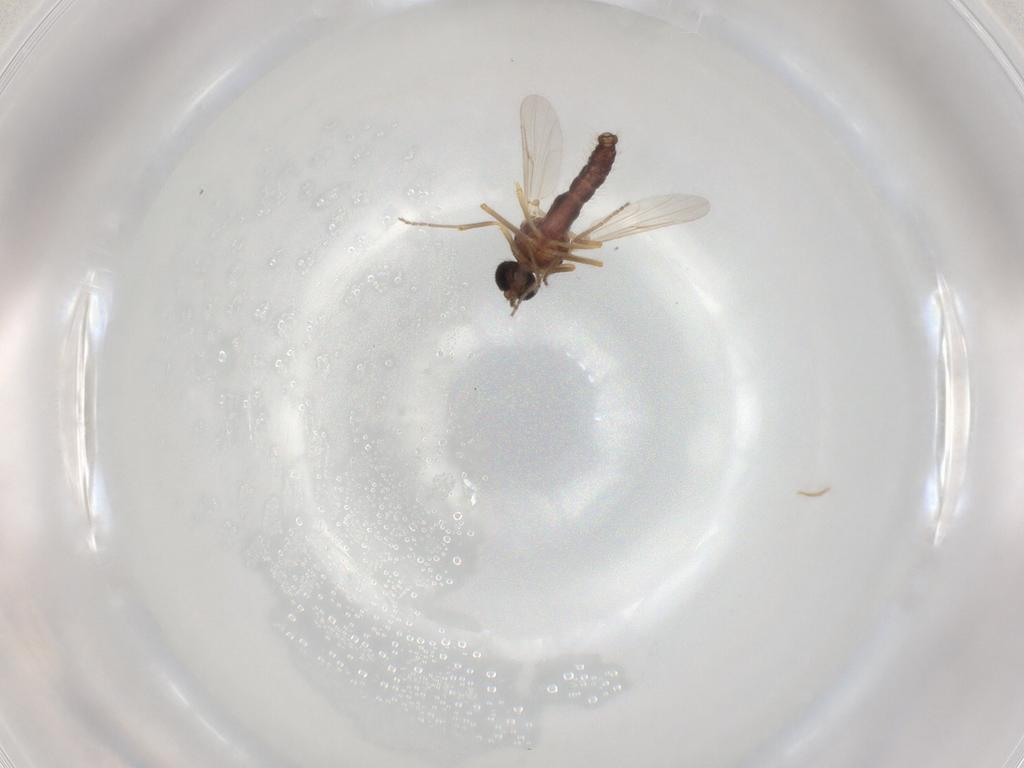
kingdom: Animalia
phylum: Arthropoda
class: Insecta
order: Diptera
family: Ceratopogonidae
